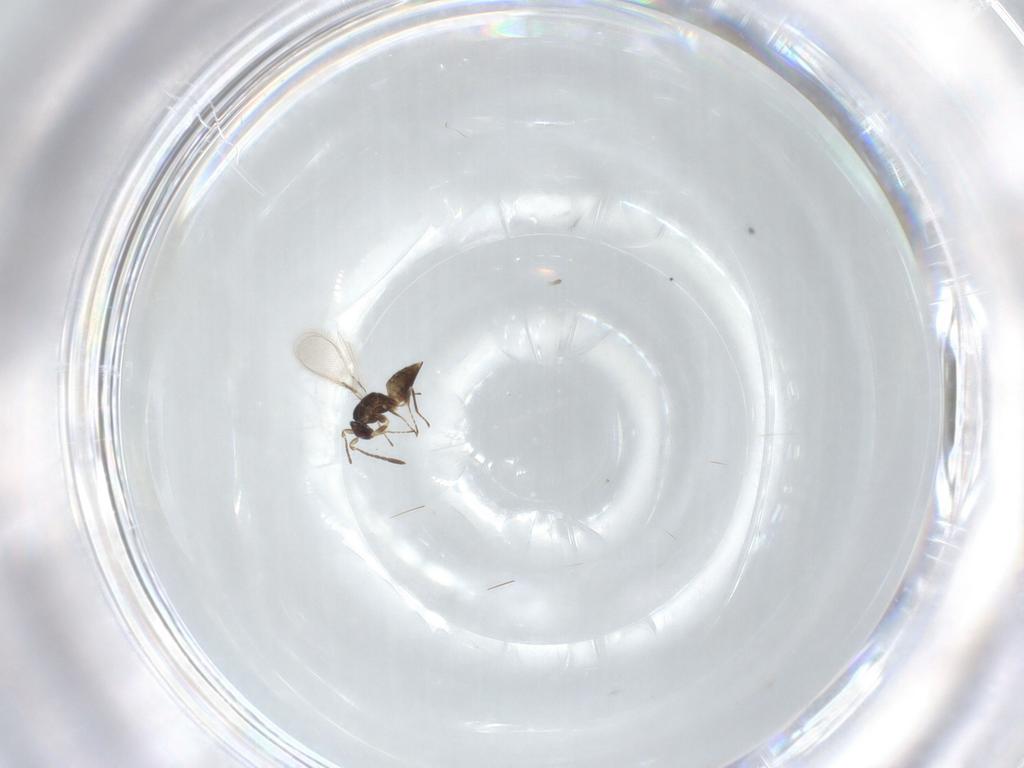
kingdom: Animalia
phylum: Arthropoda
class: Insecta
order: Hymenoptera
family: Mymaridae
